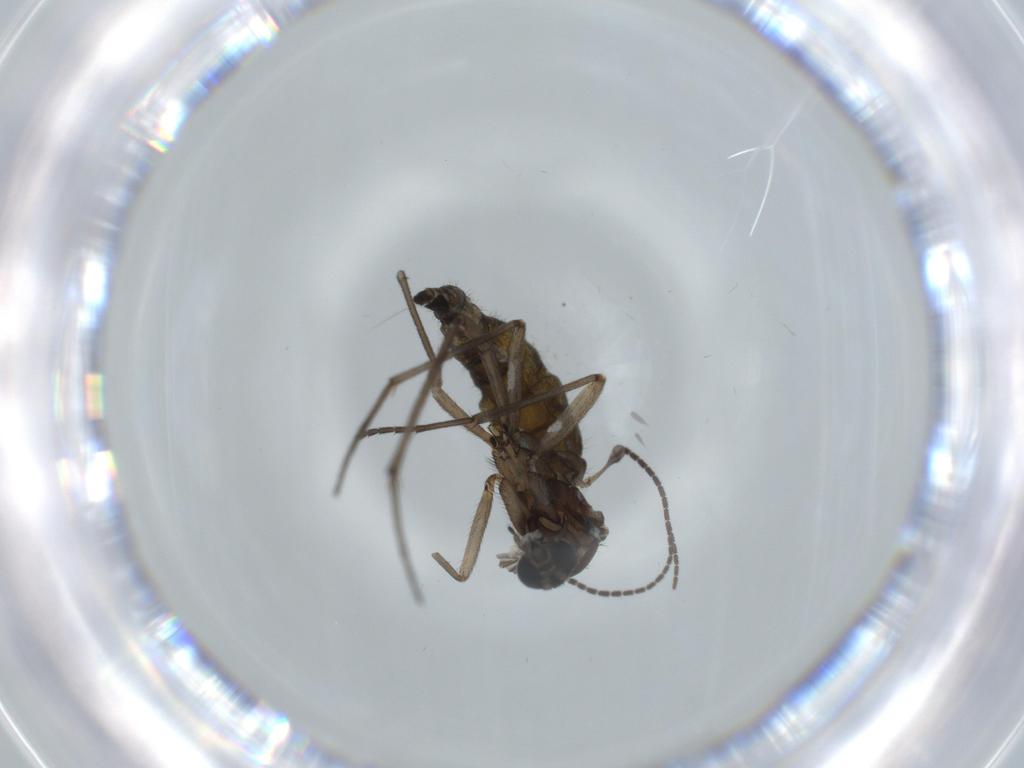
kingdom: Animalia
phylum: Arthropoda
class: Insecta
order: Diptera
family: Sciaridae
